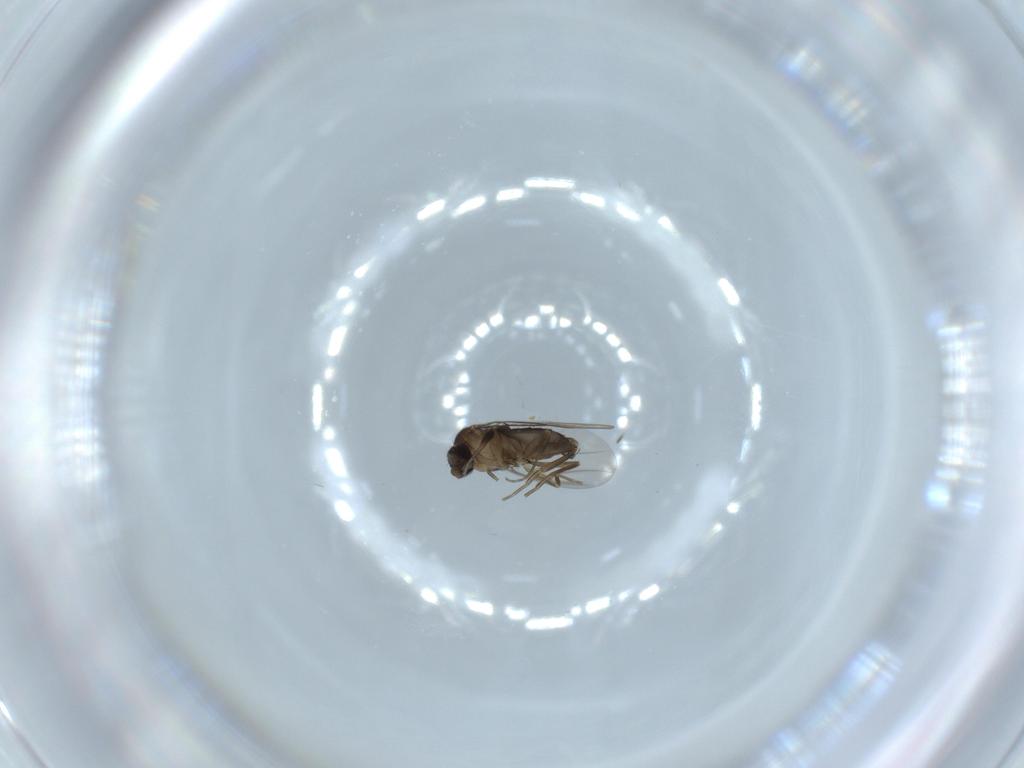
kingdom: Animalia
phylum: Arthropoda
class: Insecta
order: Diptera
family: Phoridae
